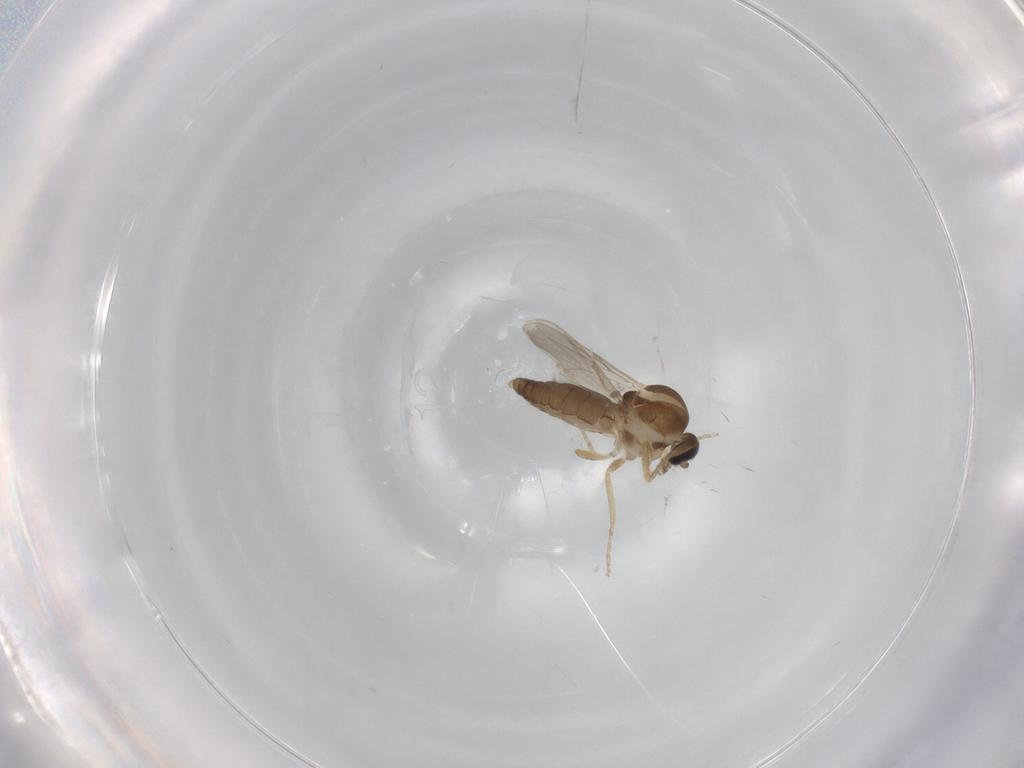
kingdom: Animalia
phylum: Arthropoda
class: Insecta
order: Diptera
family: Ceratopogonidae
